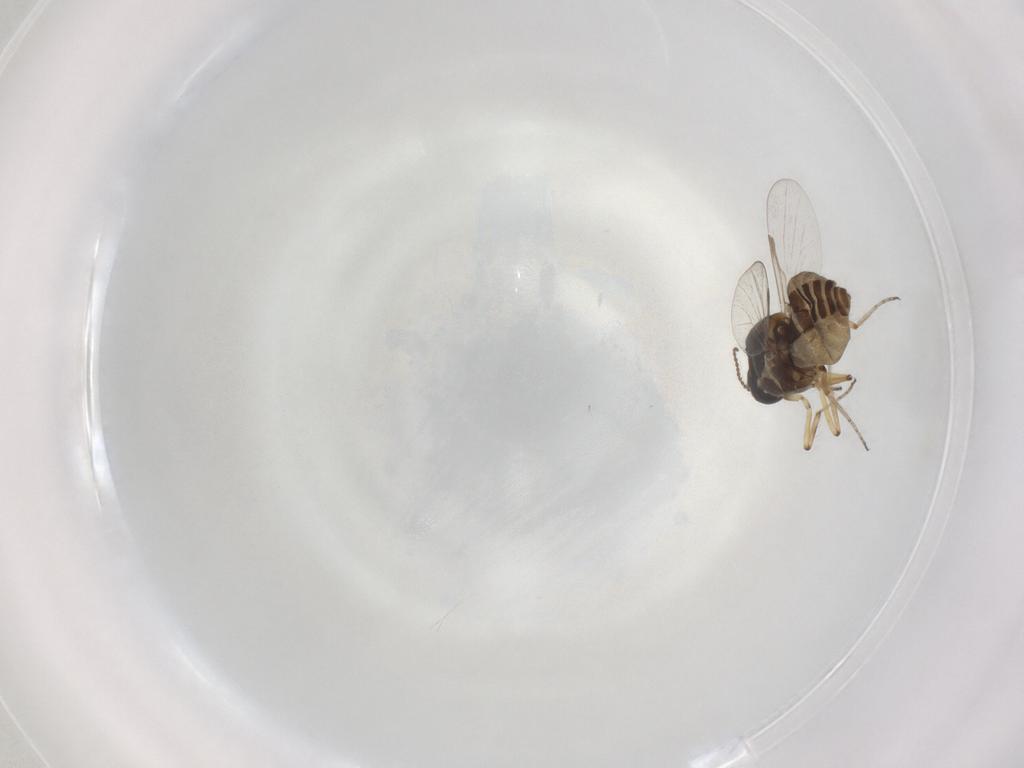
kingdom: Animalia
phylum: Arthropoda
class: Insecta
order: Diptera
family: Ceratopogonidae
